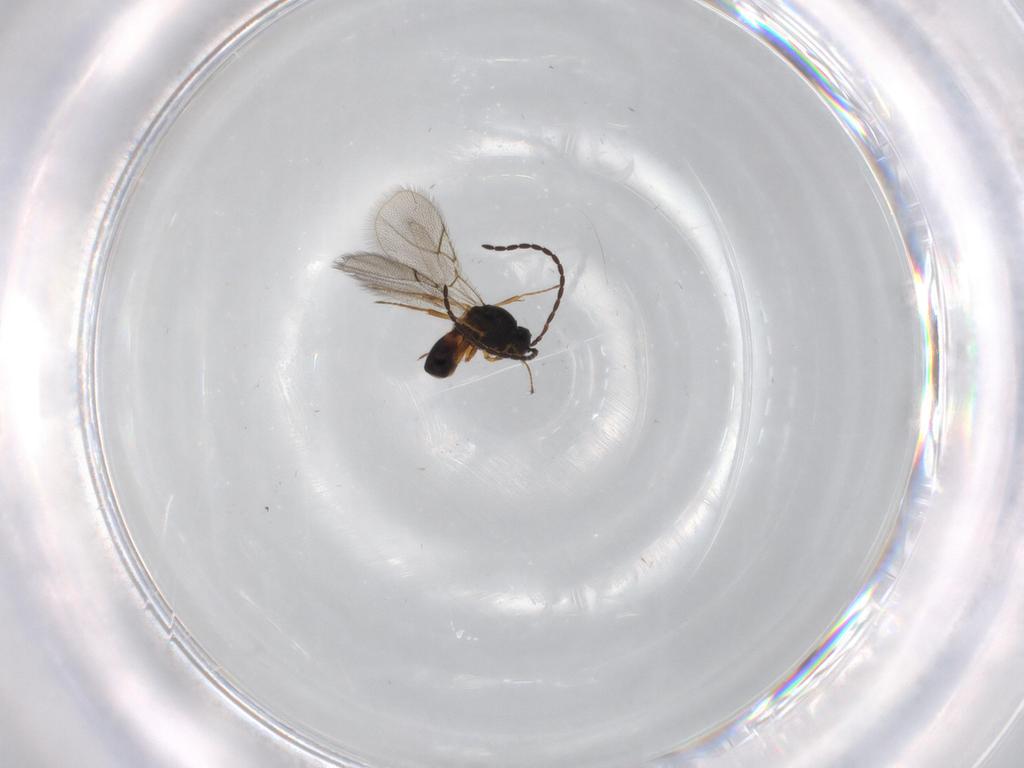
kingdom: Animalia
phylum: Arthropoda
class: Insecta
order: Hymenoptera
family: Figitidae
